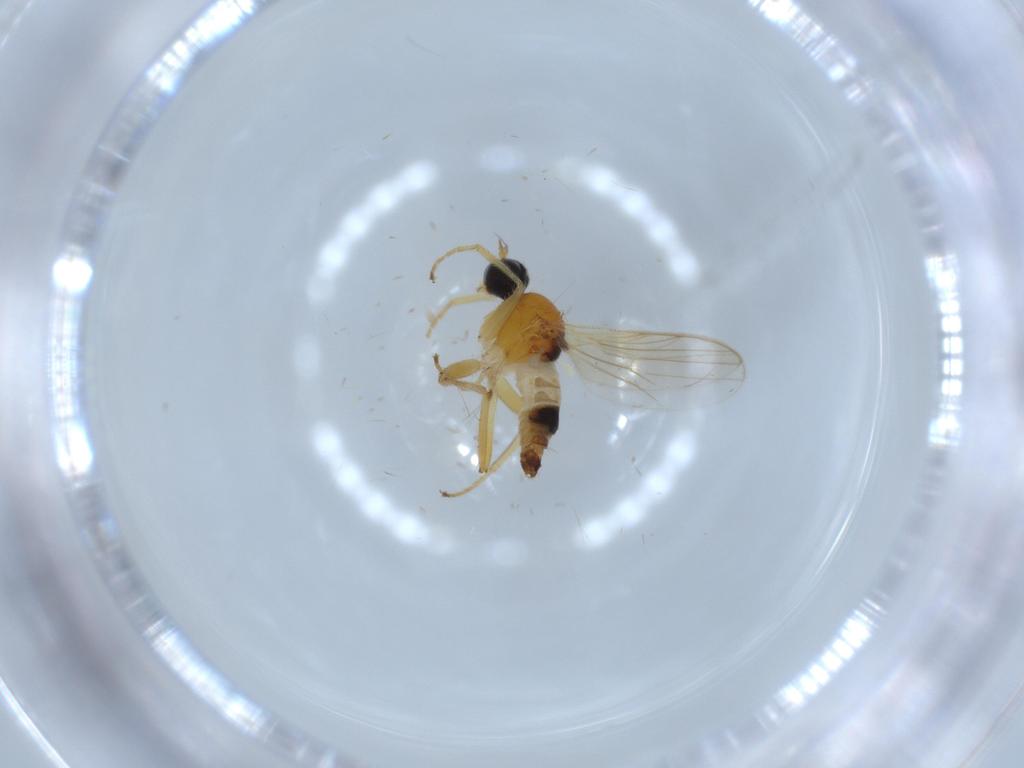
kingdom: Animalia
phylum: Arthropoda
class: Insecta
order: Diptera
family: Hybotidae
